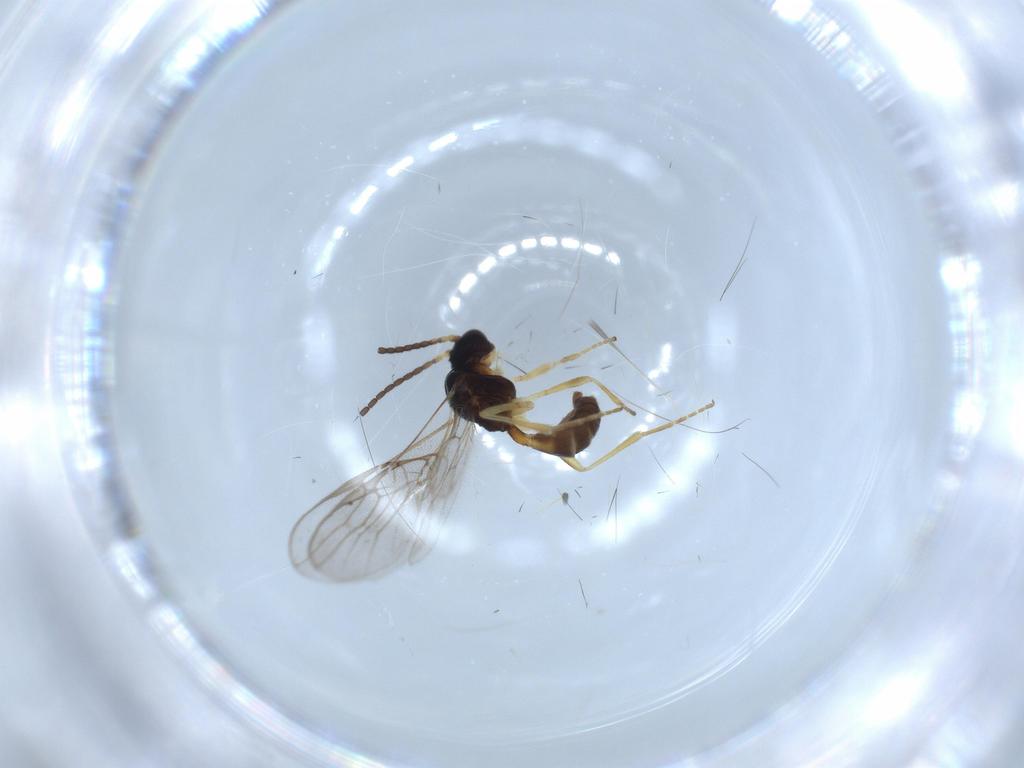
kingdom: Animalia
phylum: Arthropoda
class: Insecta
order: Hymenoptera
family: Braconidae
